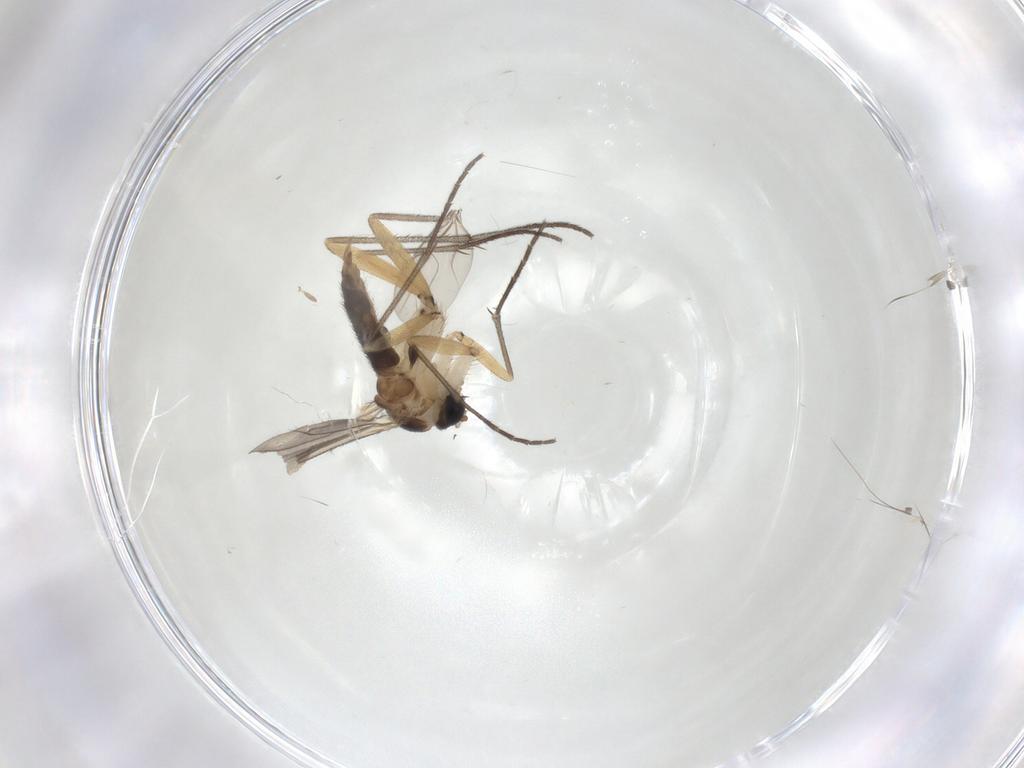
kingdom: Animalia
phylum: Arthropoda
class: Insecta
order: Diptera
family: Sciaridae
